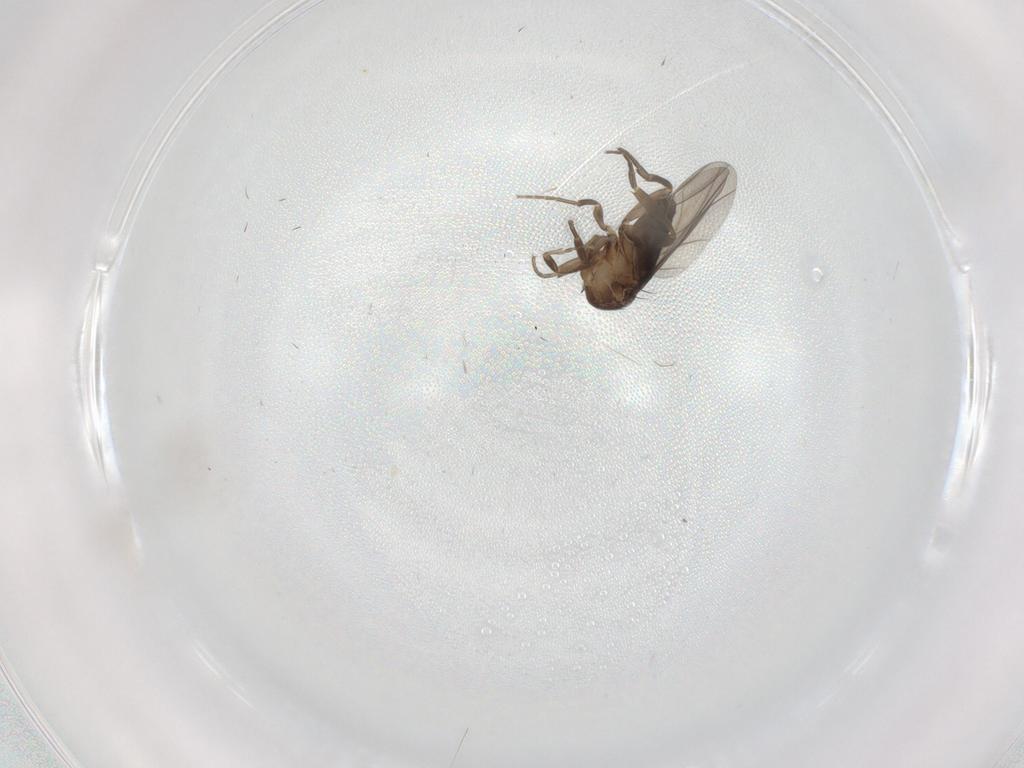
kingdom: Animalia
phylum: Arthropoda
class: Insecta
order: Diptera
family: Phoridae
